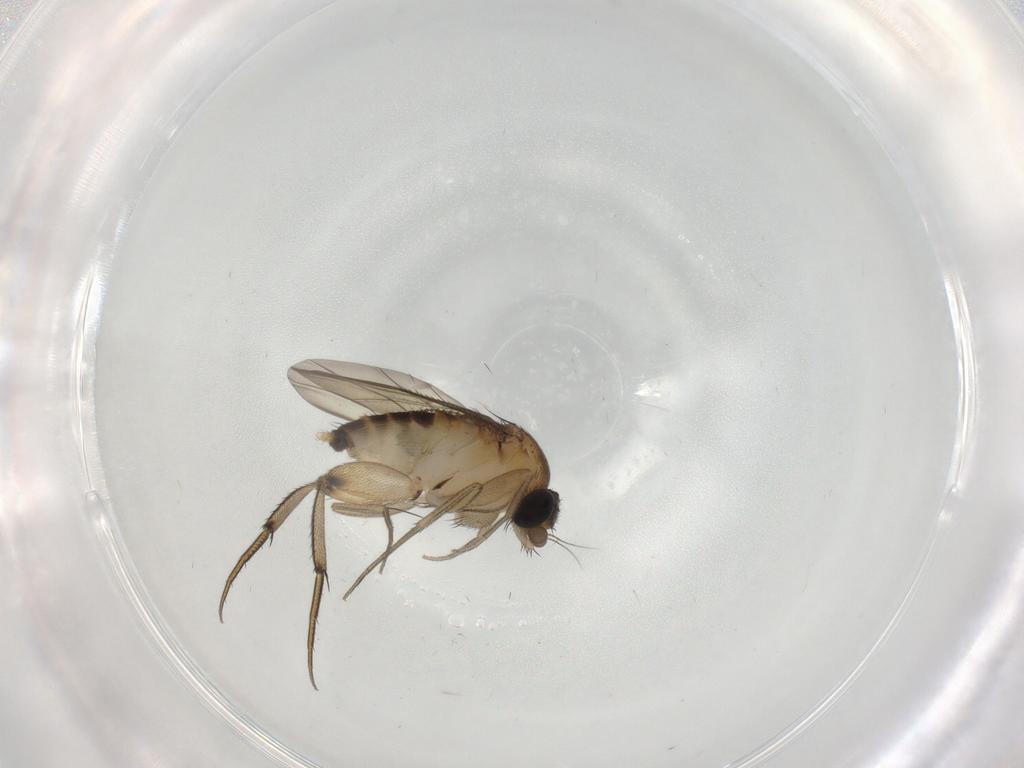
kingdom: Animalia
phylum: Arthropoda
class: Insecta
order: Diptera
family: Phoridae
